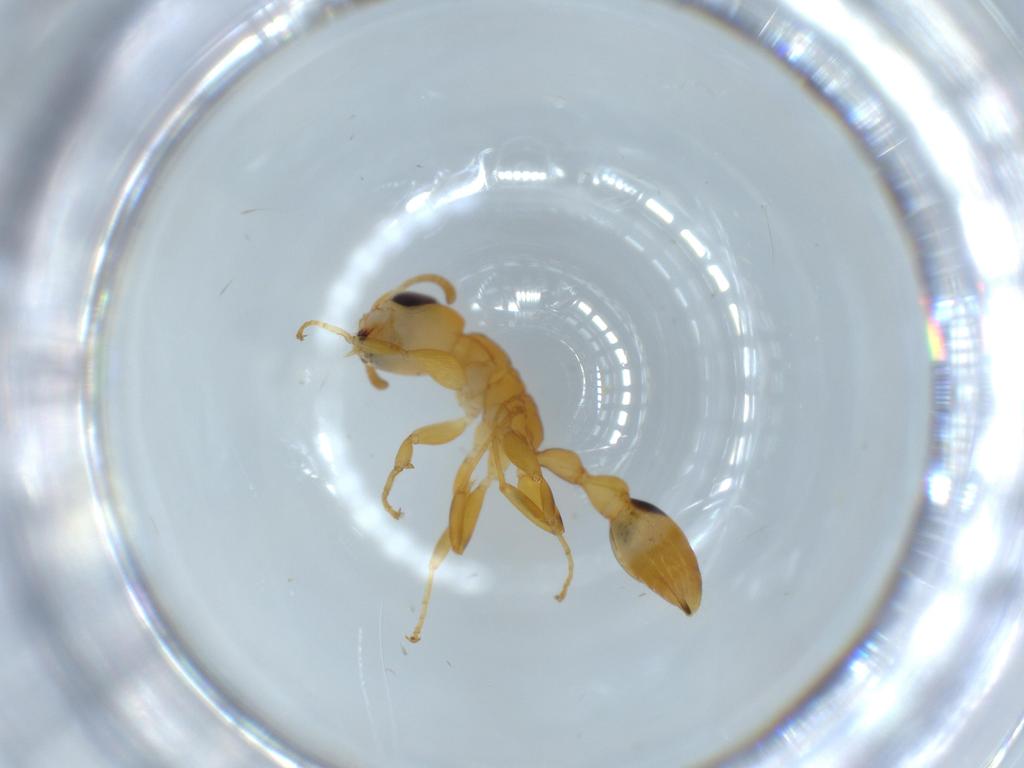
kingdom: Animalia
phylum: Arthropoda
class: Insecta
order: Hymenoptera
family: Formicidae
